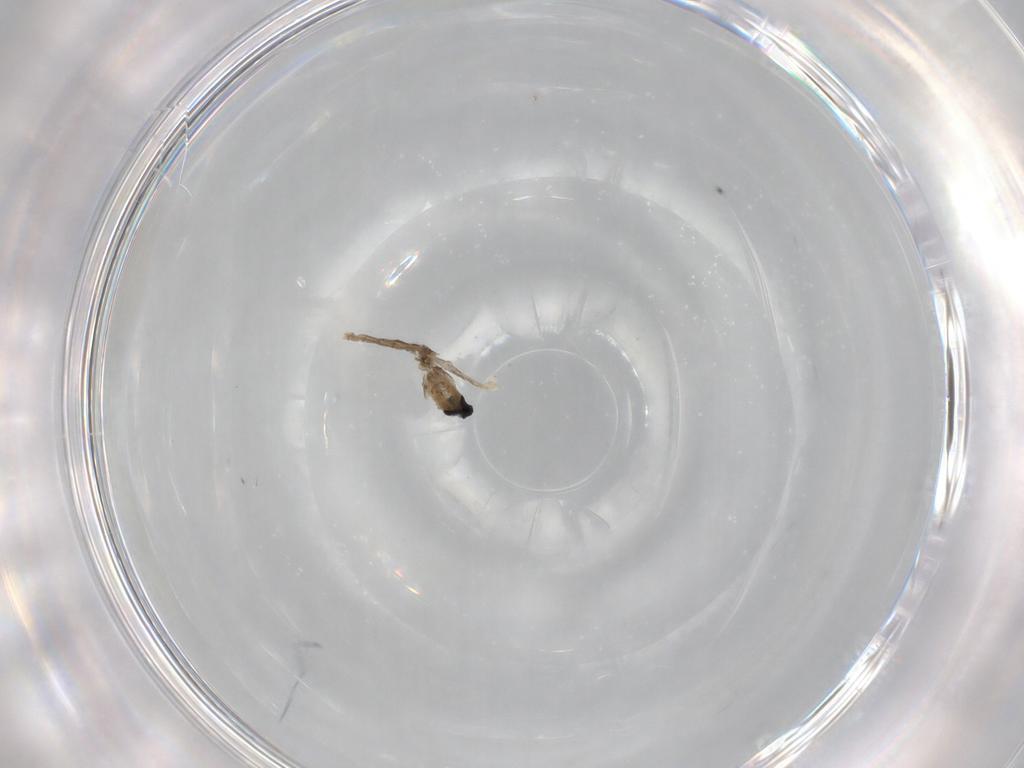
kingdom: Animalia
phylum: Arthropoda
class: Insecta
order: Diptera
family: Cecidomyiidae
